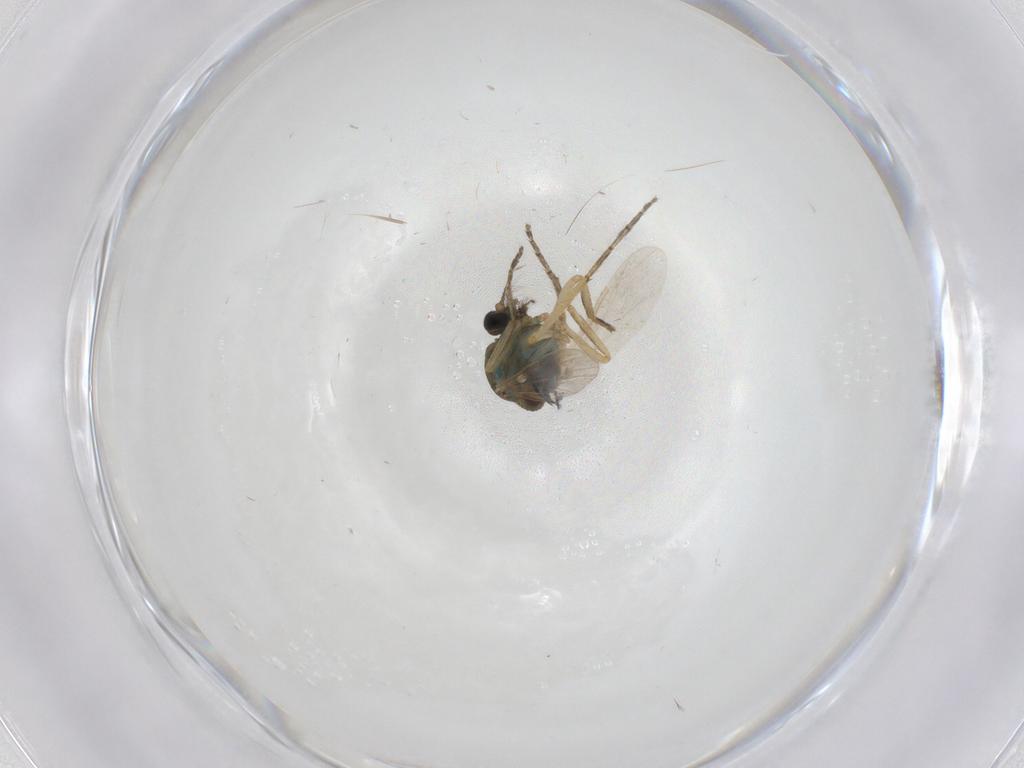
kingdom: Animalia
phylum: Arthropoda
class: Insecta
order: Diptera
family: Ceratopogonidae
